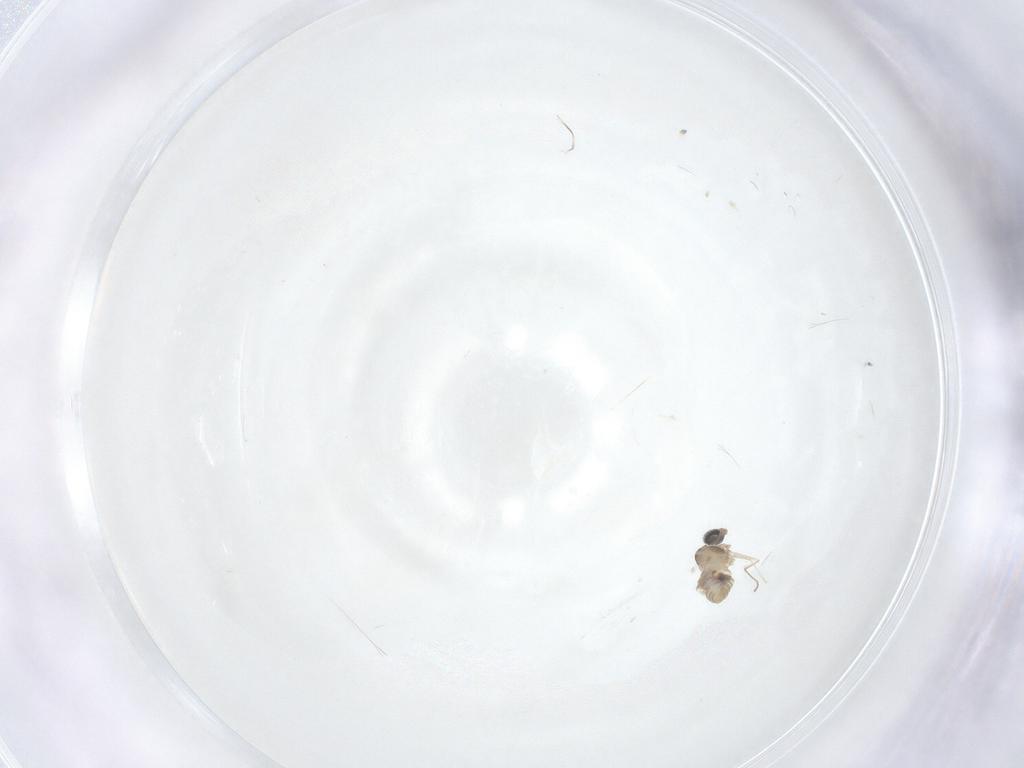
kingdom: Animalia
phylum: Arthropoda
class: Insecta
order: Diptera
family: Cecidomyiidae
